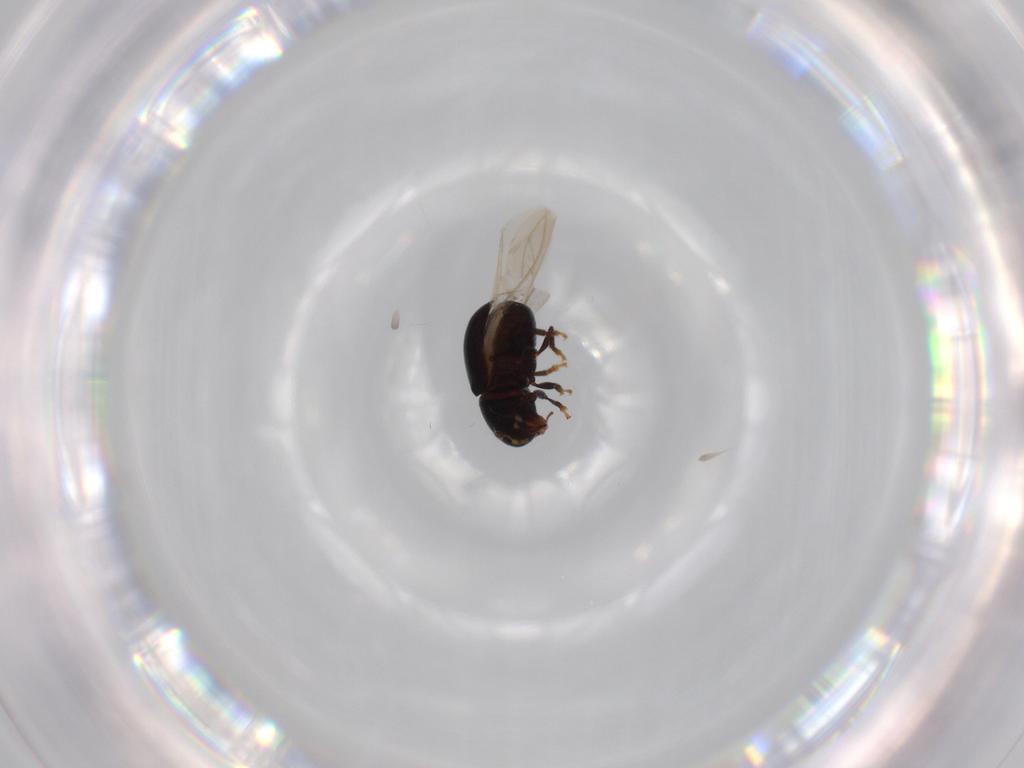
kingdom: Animalia
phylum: Arthropoda
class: Insecta
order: Coleoptera
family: Anthribidae
